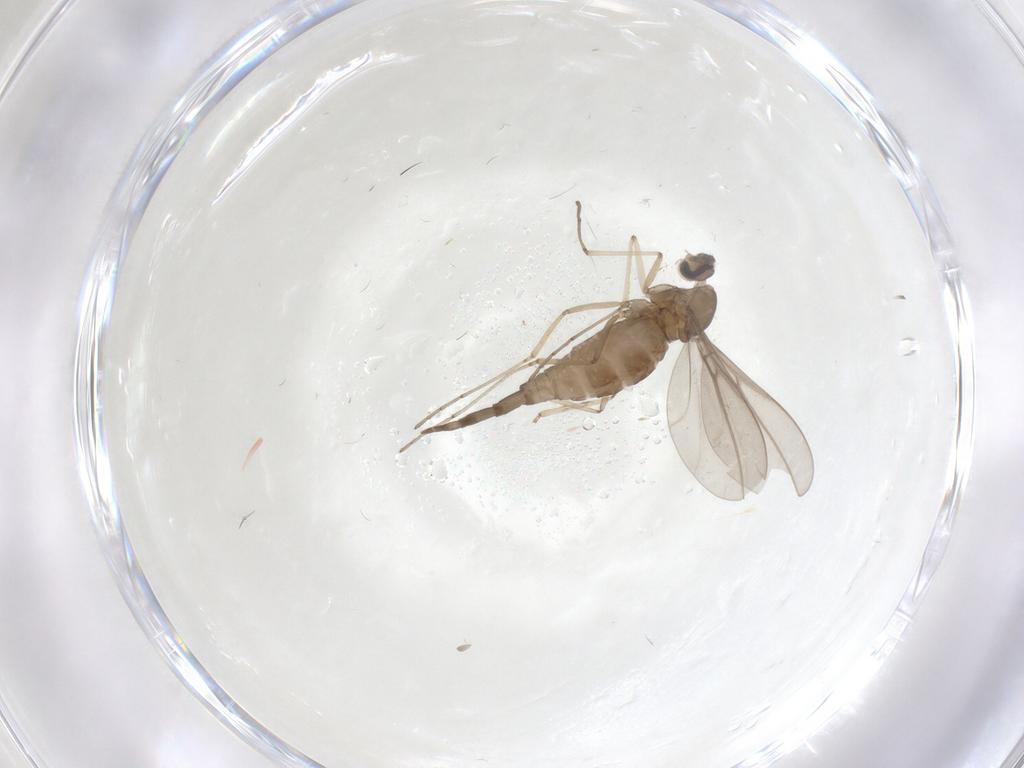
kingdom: Animalia
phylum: Arthropoda
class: Insecta
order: Diptera
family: Cecidomyiidae
